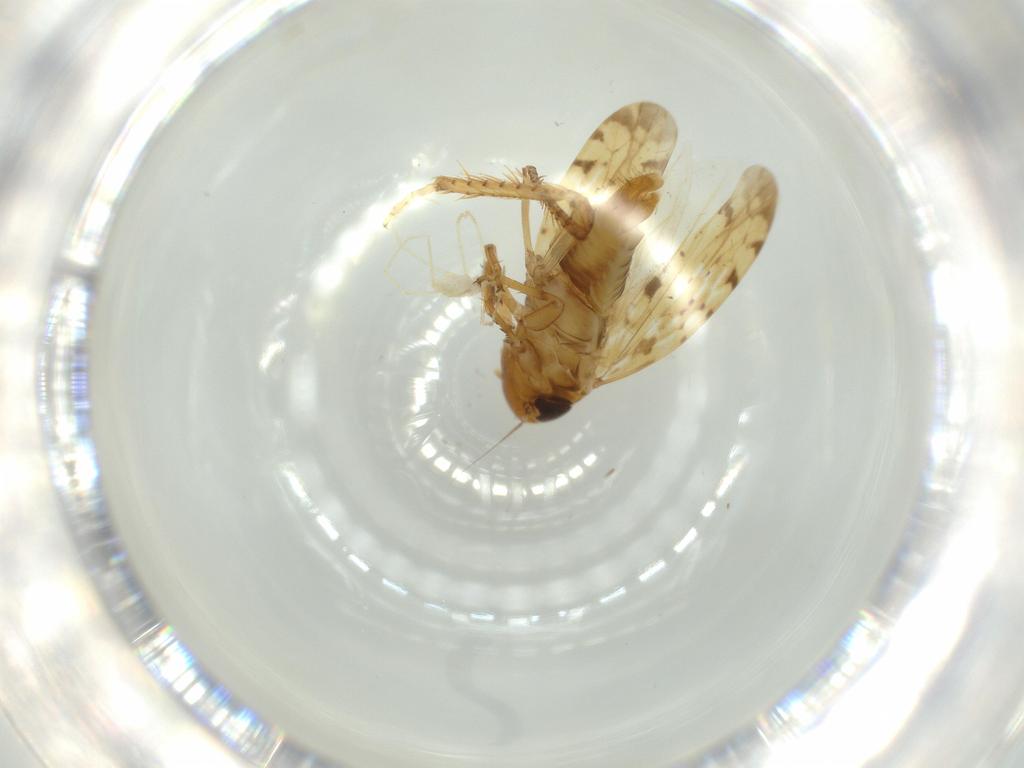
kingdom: Animalia
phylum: Arthropoda
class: Insecta
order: Hemiptera
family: Cicadellidae
